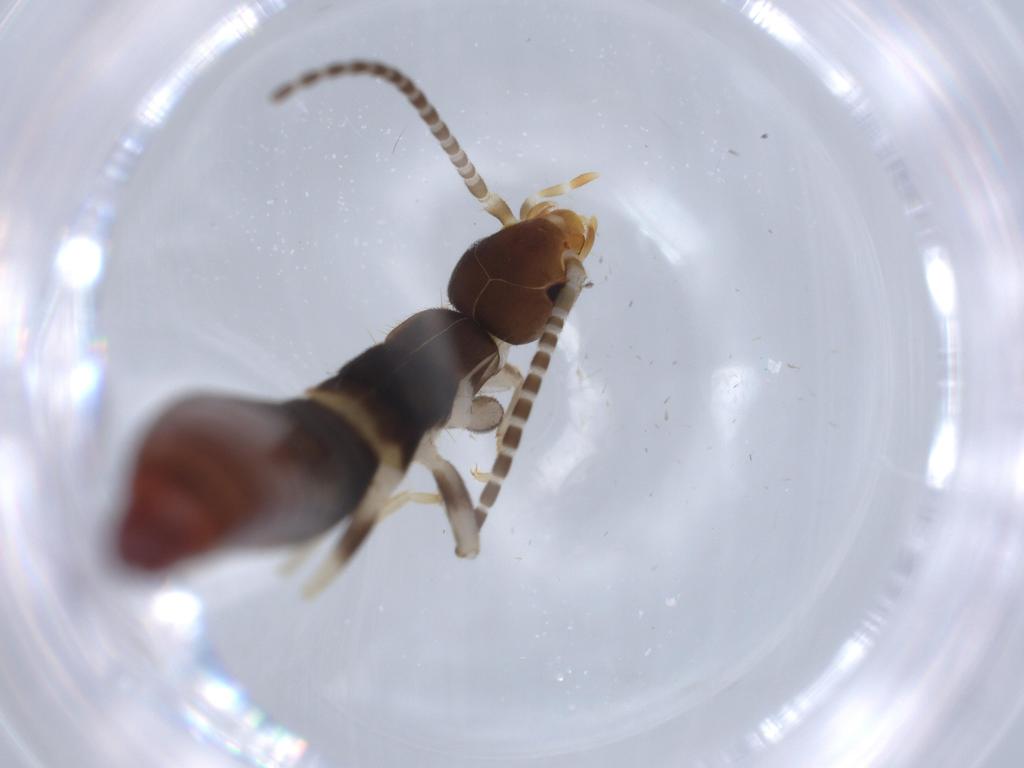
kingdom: Animalia
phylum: Arthropoda
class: Insecta
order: Dermaptera
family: Forficulidae
